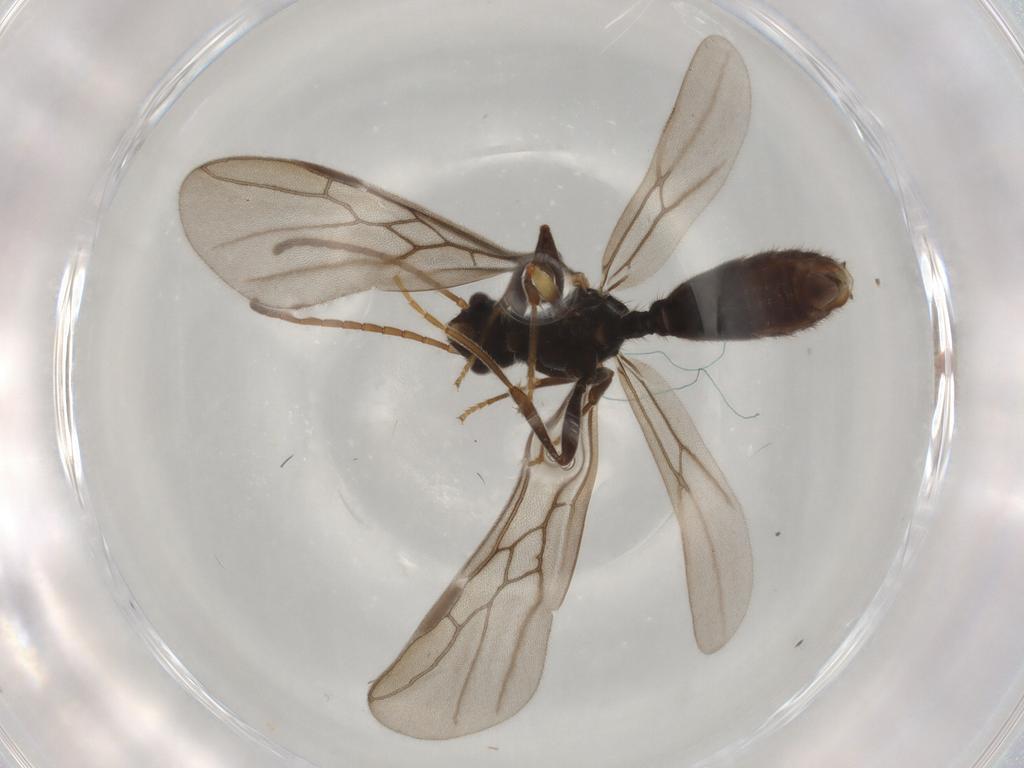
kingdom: Animalia
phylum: Arthropoda
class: Insecta
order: Hymenoptera
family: Formicidae
